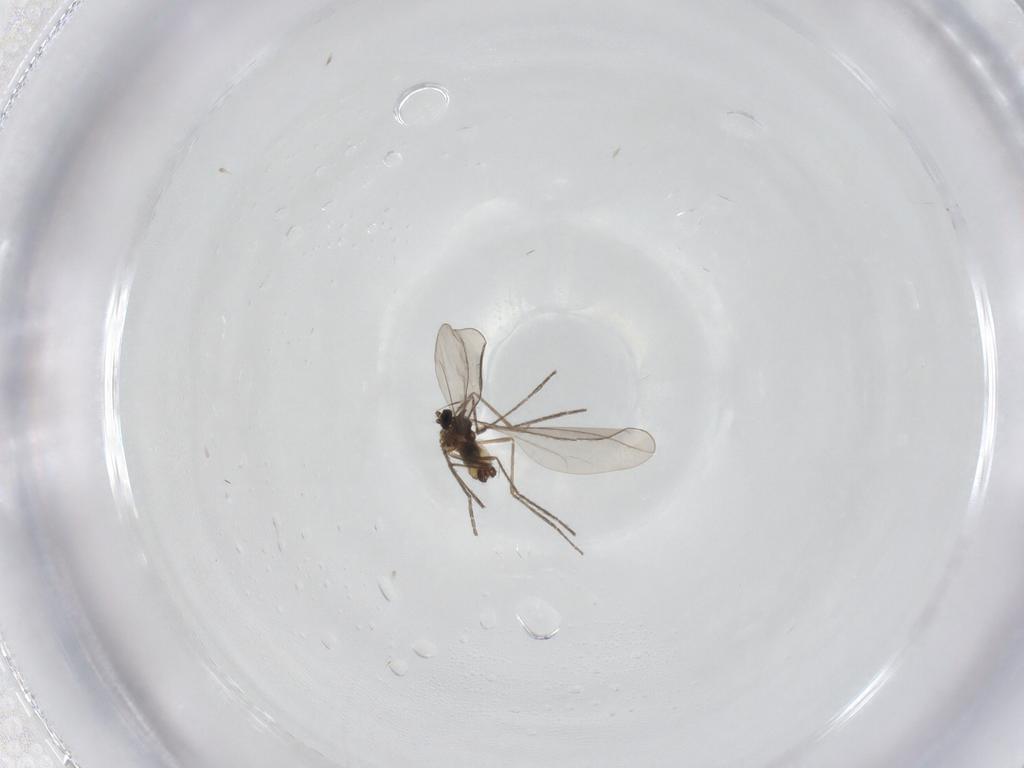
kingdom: Animalia
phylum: Arthropoda
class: Insecta
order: Diptera
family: Cecidomyiidae
